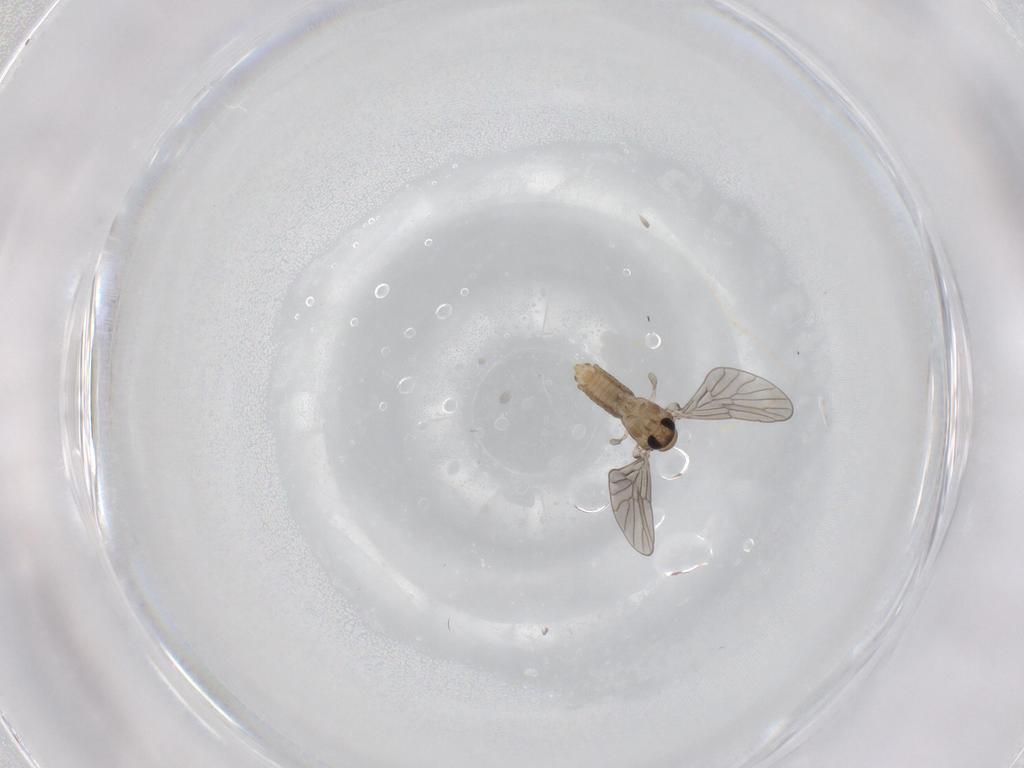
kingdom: Animalia
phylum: Arthropoda
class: Insecta
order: Diptera
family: Psychodidae
